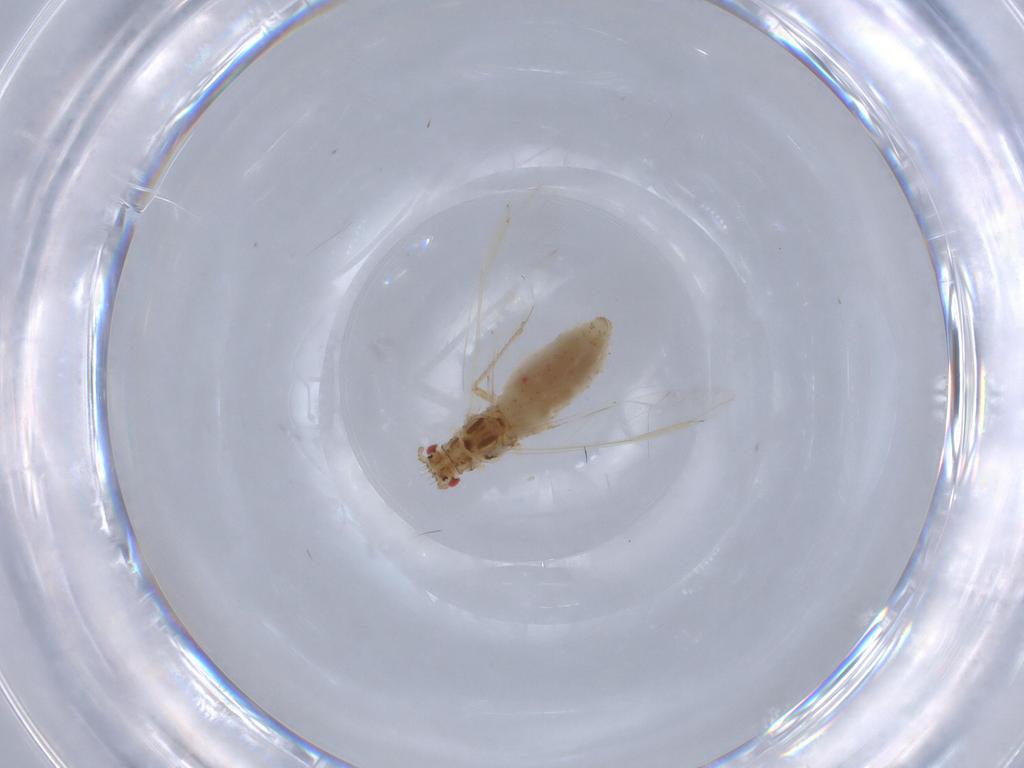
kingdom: Animalia
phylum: Arthropoda
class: Insecta
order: Hemiptera
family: Aphididae
